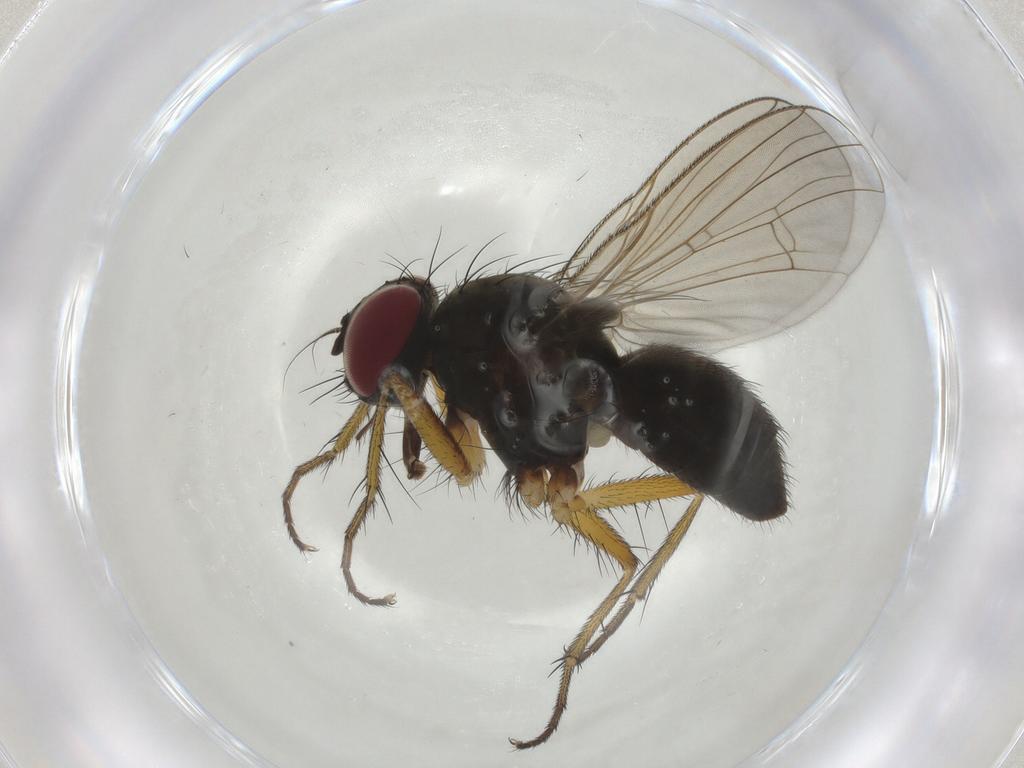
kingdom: Animalia
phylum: Arthropoda
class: Insecta
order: Diptera
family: Muscidae
